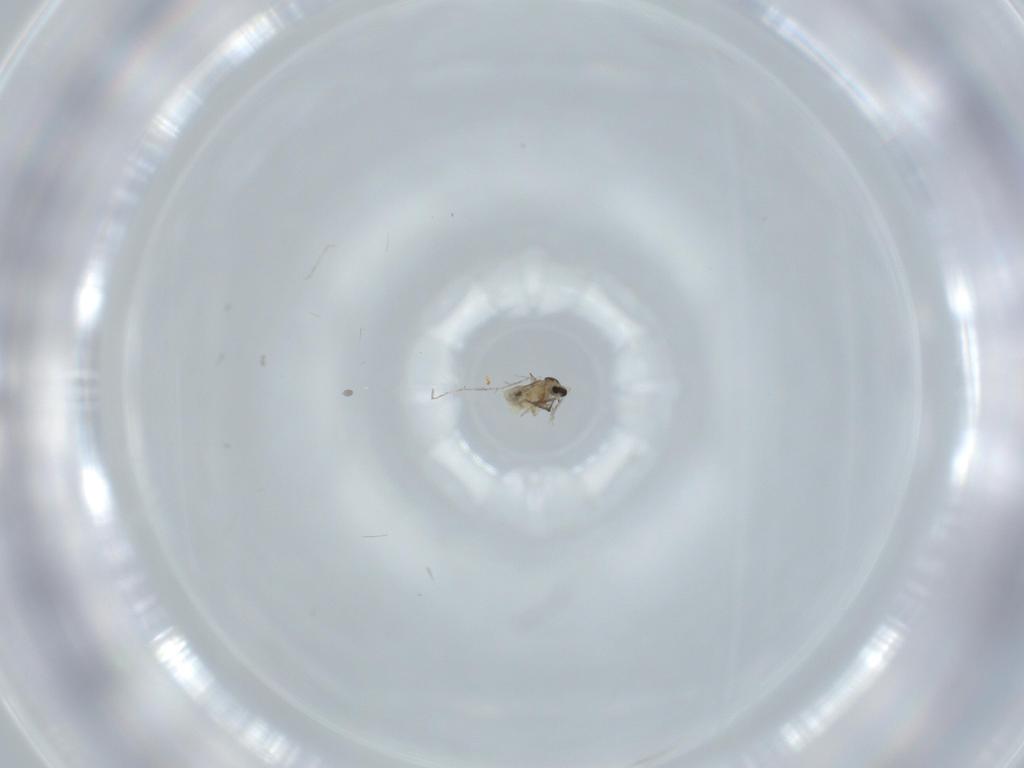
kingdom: Animalia
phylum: Arthropoda
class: Insecta
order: Diptera
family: Cecidomyiidae
